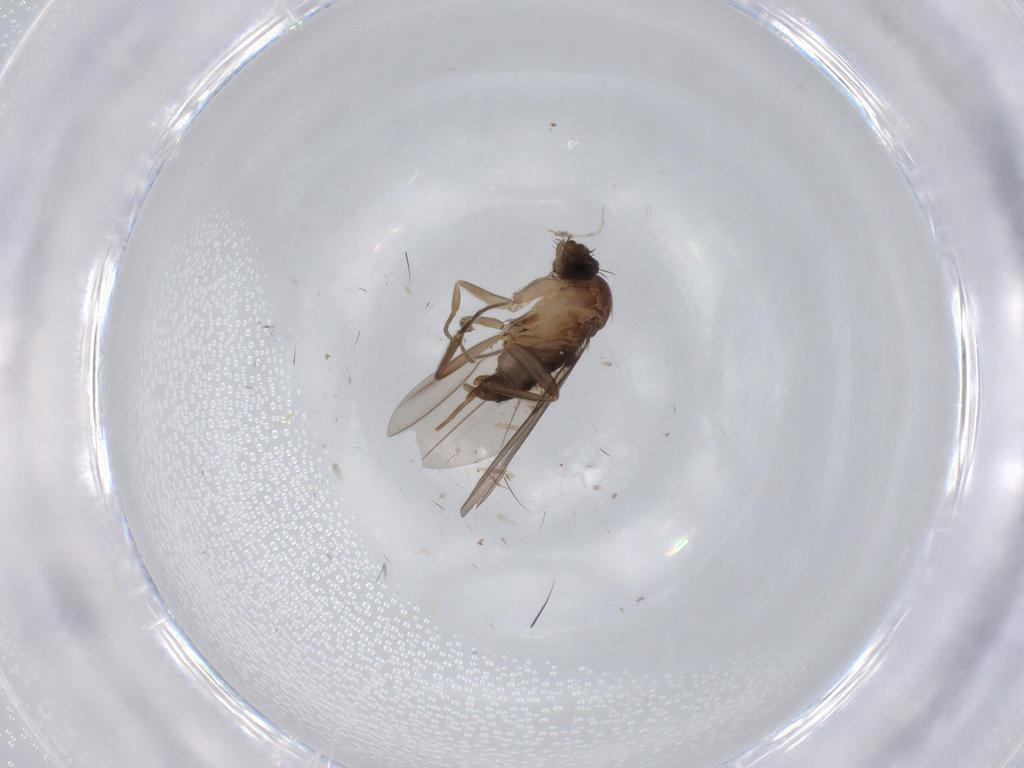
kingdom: Animalia
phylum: Arthropoda
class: Insecta
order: Diptera
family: Phoridae
